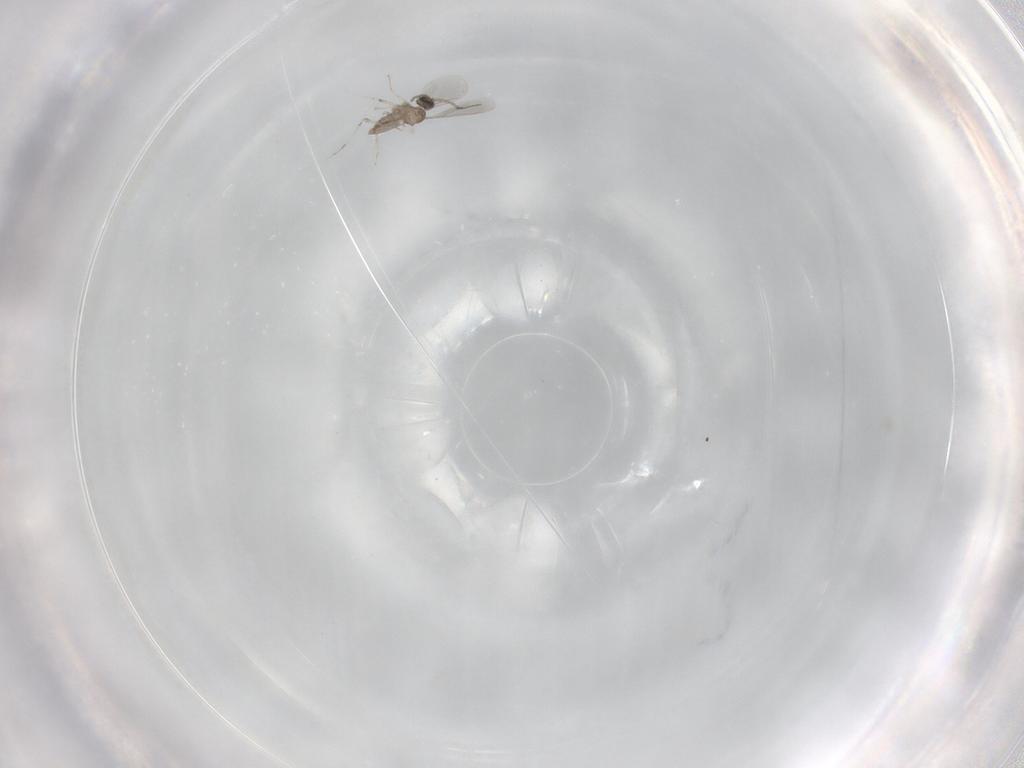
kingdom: Animalia
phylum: Arthropoda
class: Insecta
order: Diptera
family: Cecidomyiidae
